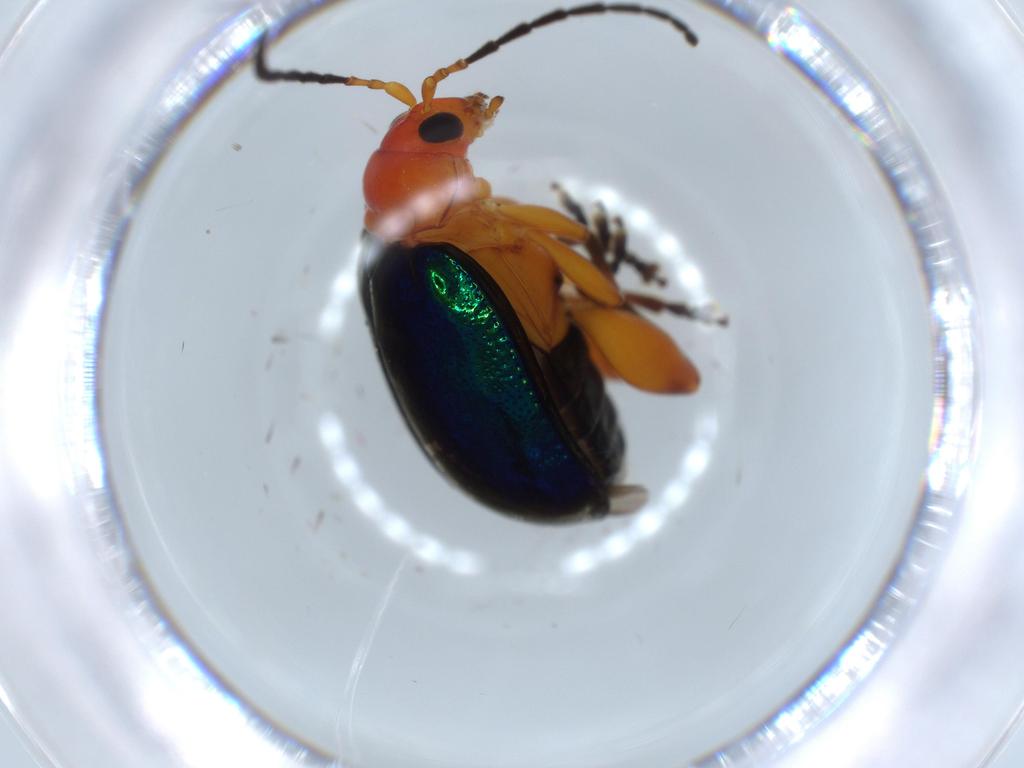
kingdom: Animalia
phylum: Arthropoda
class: Insecta
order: Coleoptera
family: Chrysomelidae
